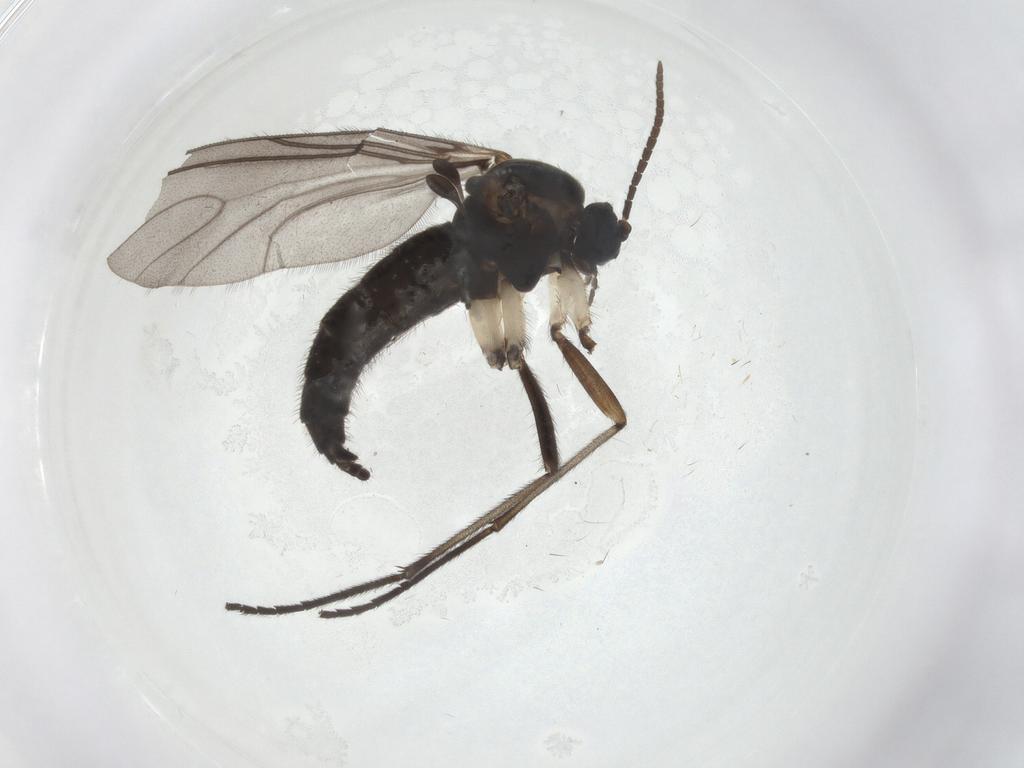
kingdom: Animalia
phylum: Arthropoda
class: Insecta
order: Diptera
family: Sciaridae
